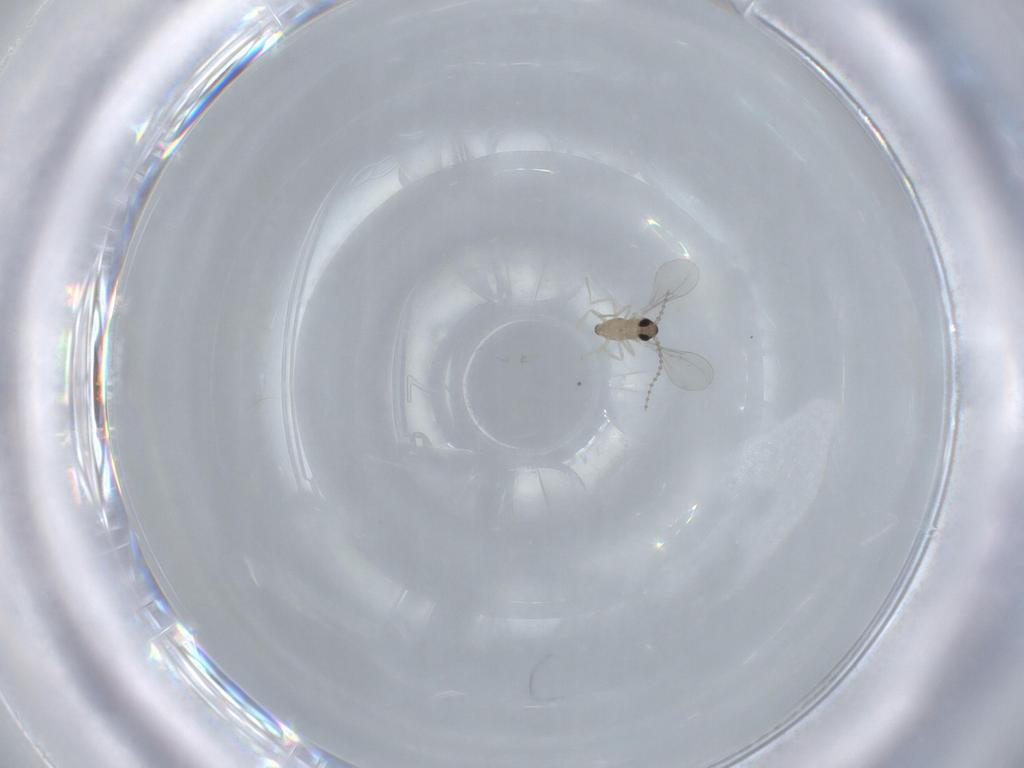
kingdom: Animalia
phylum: Arthropoda
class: Insecta
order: Diptera
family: Cecidomyiidae
